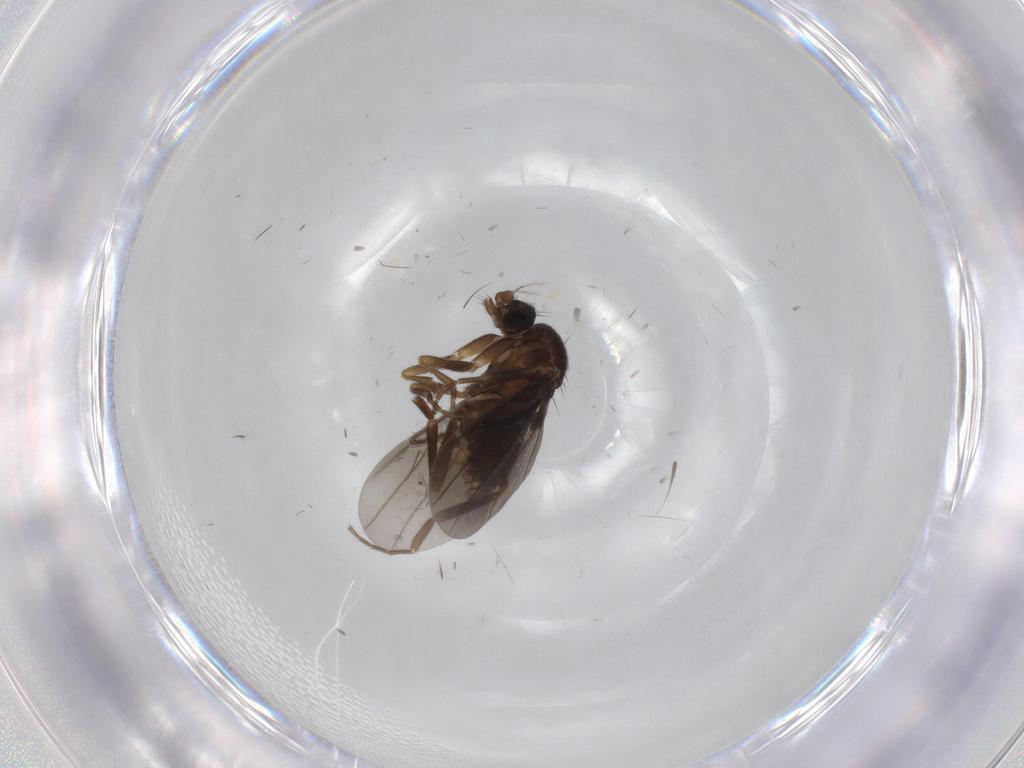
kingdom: Animalia
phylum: Arthropoda
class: Insecta
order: Diptera
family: Phoridae
